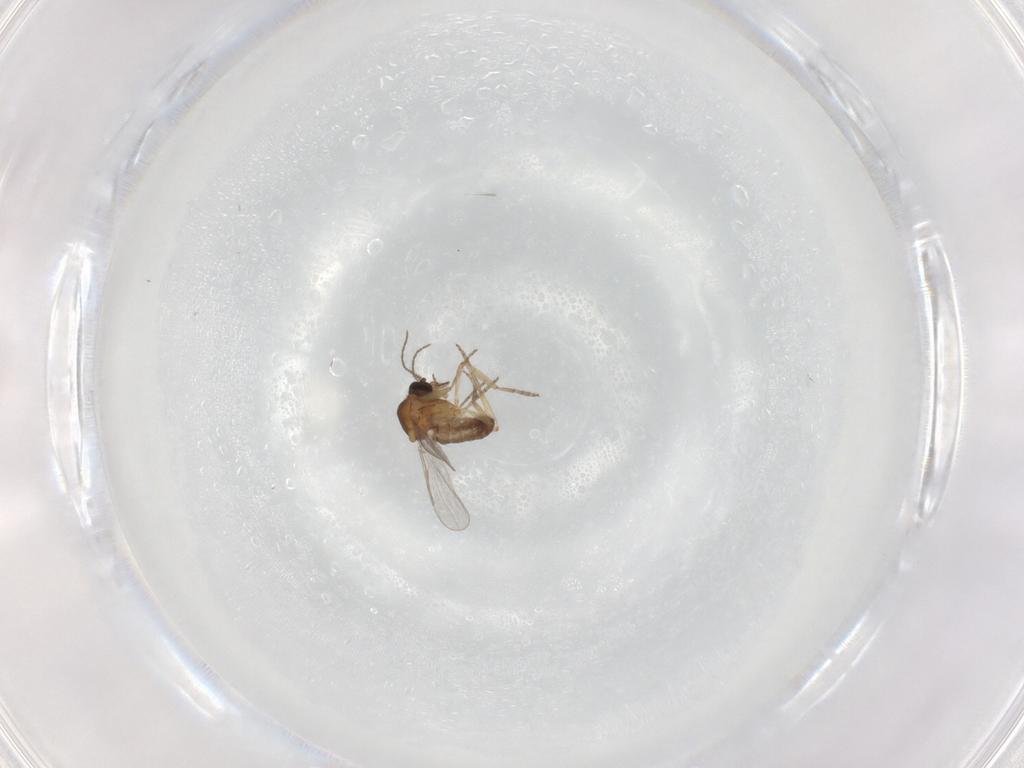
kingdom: Animalia
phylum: Arthropoda
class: Insecta
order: Diptera
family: Ceratopogonidae
